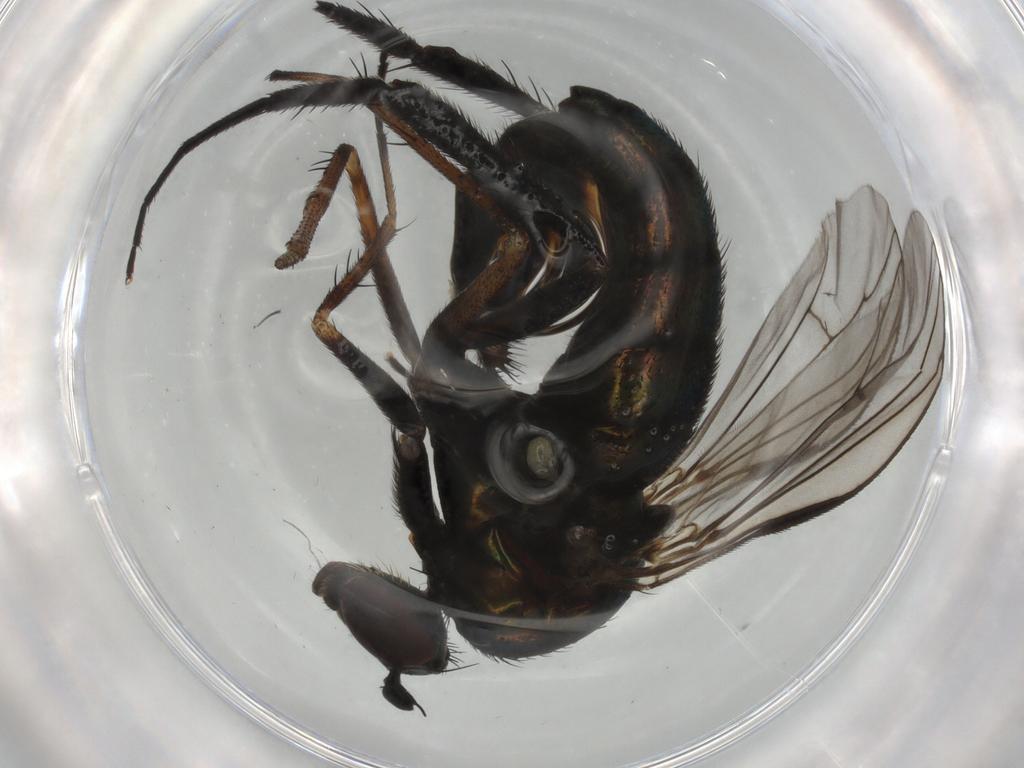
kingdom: Animalia
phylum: Arthropoda
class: Insecta
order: Diptera
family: Dolichopodidae
